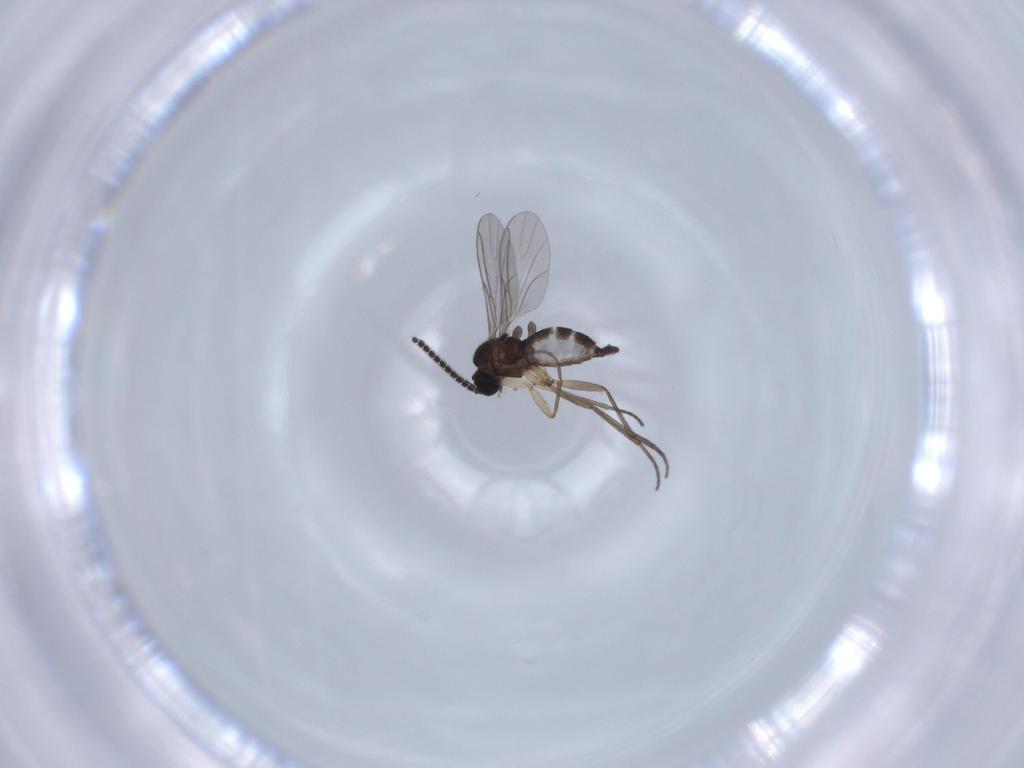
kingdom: Animalia
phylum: Arthropoda
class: Insecta
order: Diptera
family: Sciaridae
